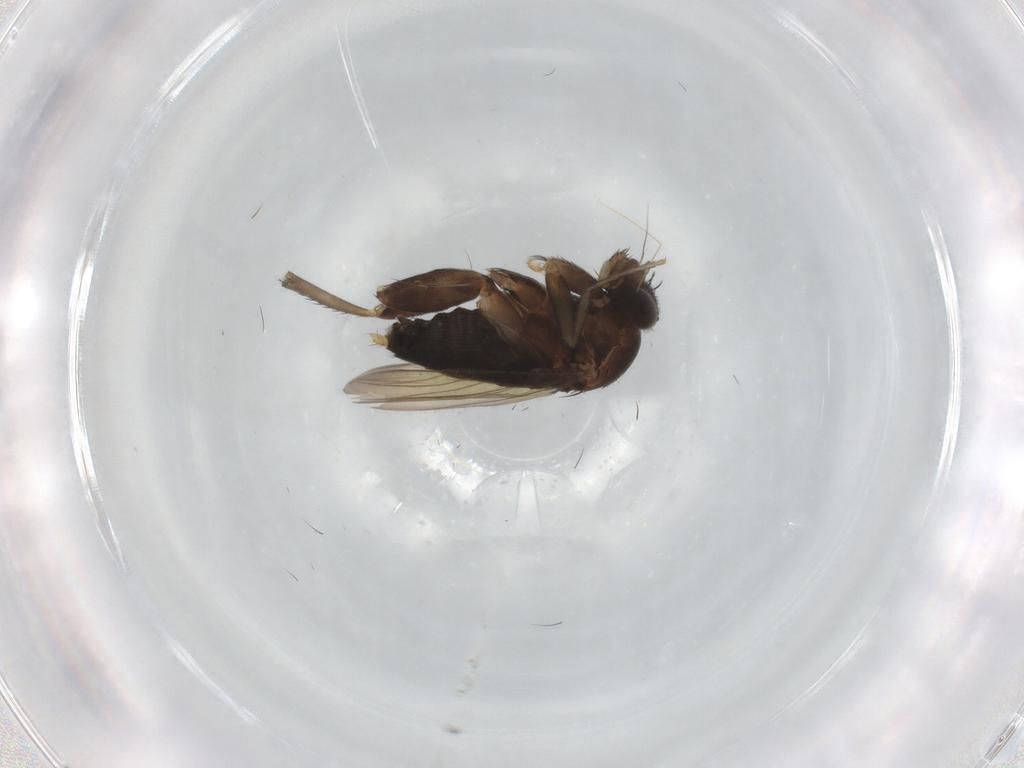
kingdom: Animalia
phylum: Arthropoda
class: Insecta
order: Diptera
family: Phoridae
